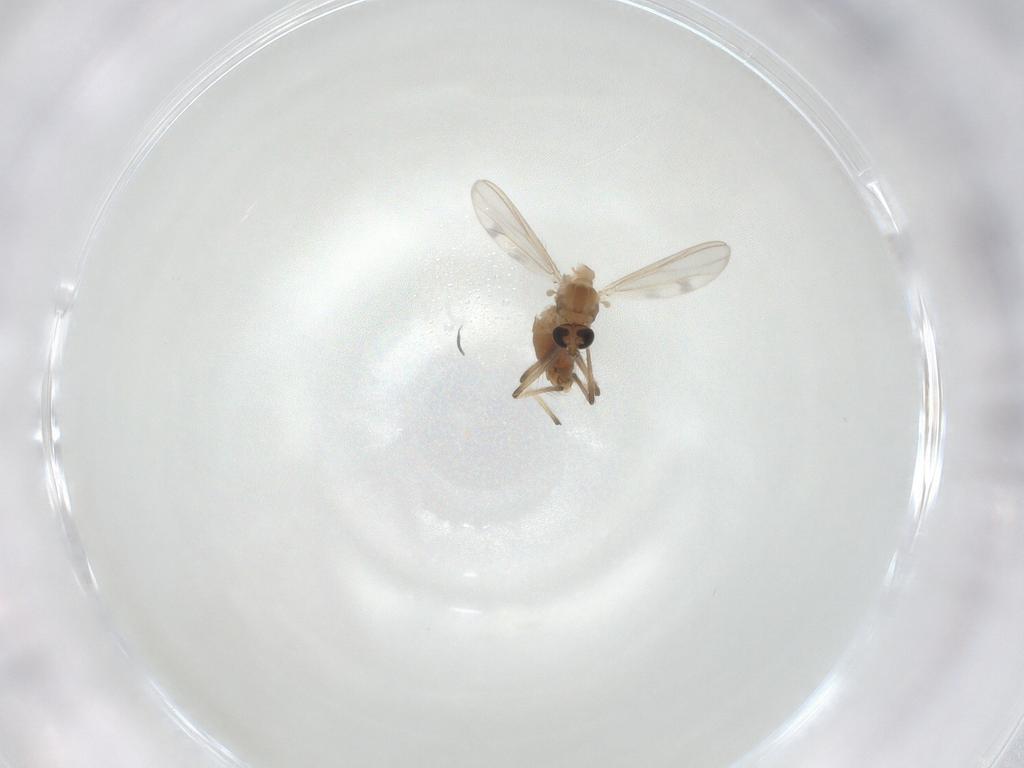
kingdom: Animalia
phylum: Arthropoda
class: Insecta
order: Diptera
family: Chironomidae
